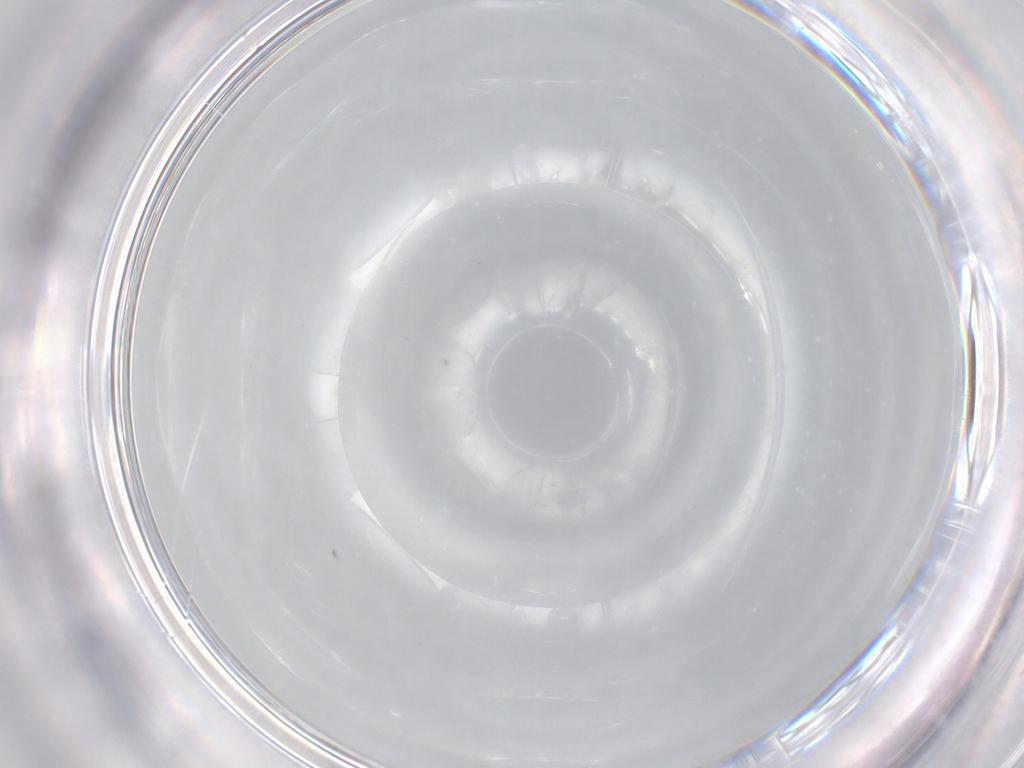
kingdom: Animalia
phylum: Arthropoda
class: Insecta
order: Diptera
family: Cecidomyiidae
